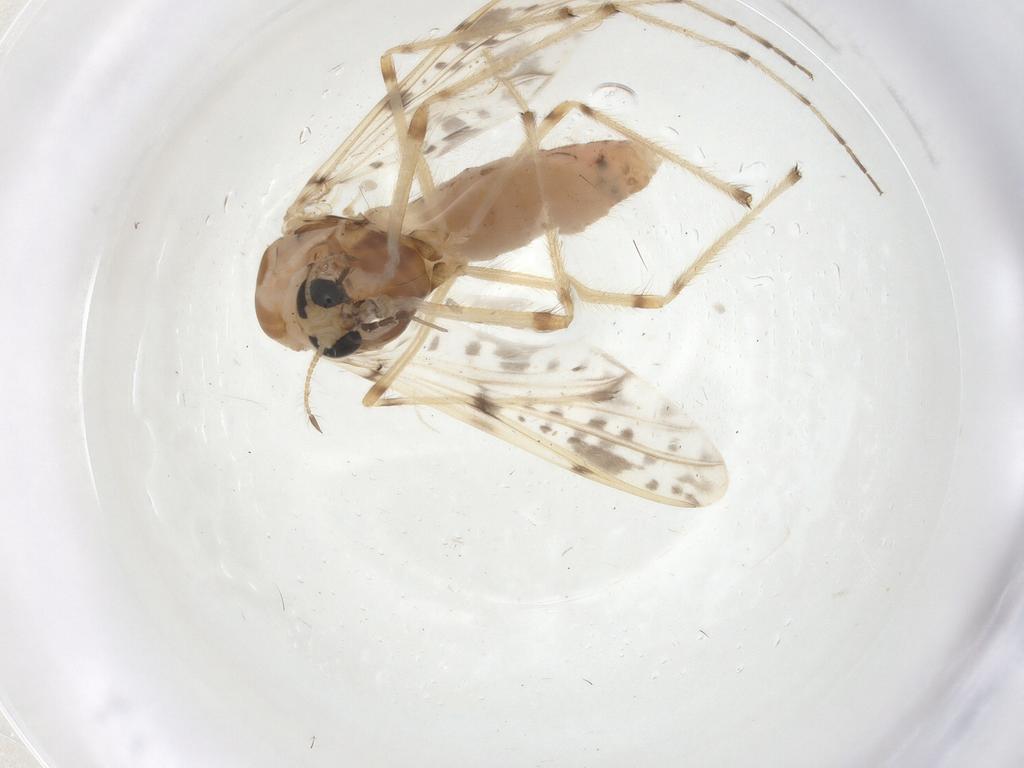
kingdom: Animalia
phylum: Arthropoda
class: Insecta
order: Diptera
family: Chironomidae
